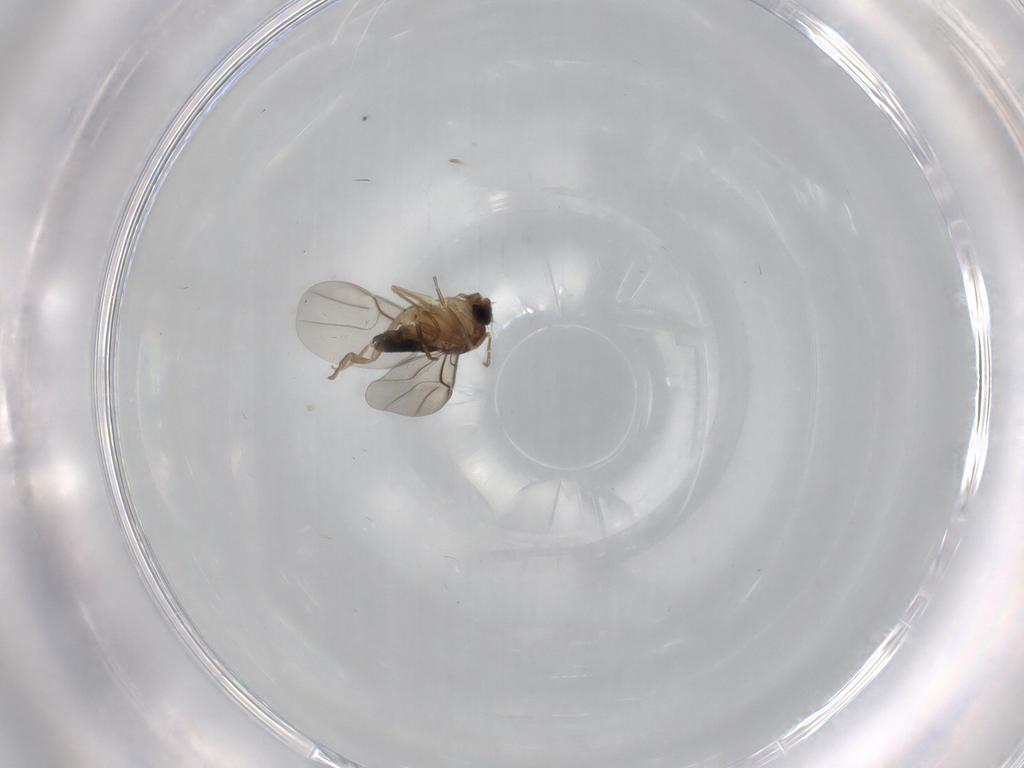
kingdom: Animalia
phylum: Arthropoda
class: Insecta
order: Diptera
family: Phoridae
